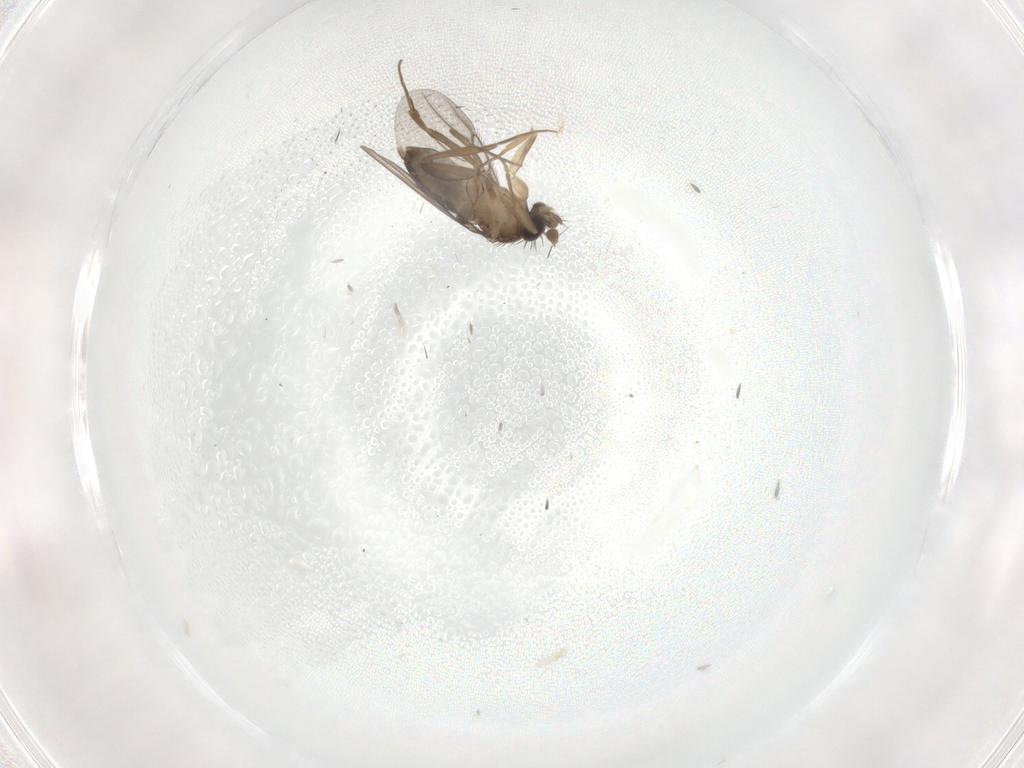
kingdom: Animalia
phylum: Arthropoda
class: Insecta
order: Diptera
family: Phoridae
